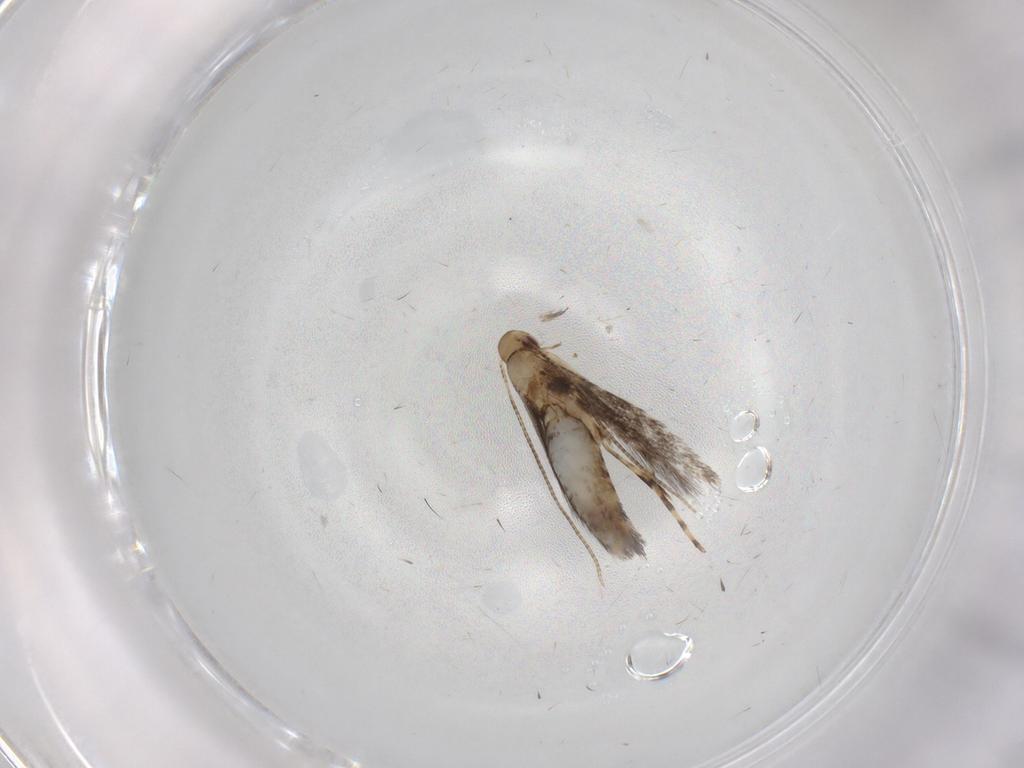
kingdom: Animalia
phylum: Arthropoda
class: Insecta
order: Lepidoptera
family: Gracillariidae
